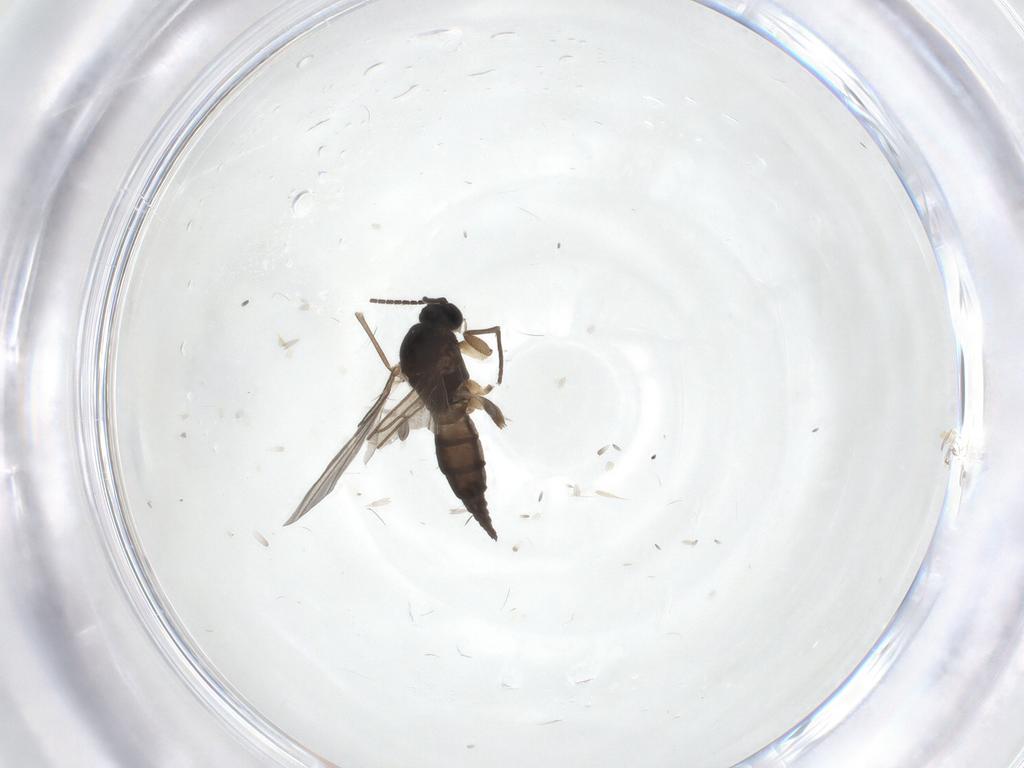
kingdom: Animalia
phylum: Arthropoda
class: Insecta
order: Diptera
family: Sciaridae
